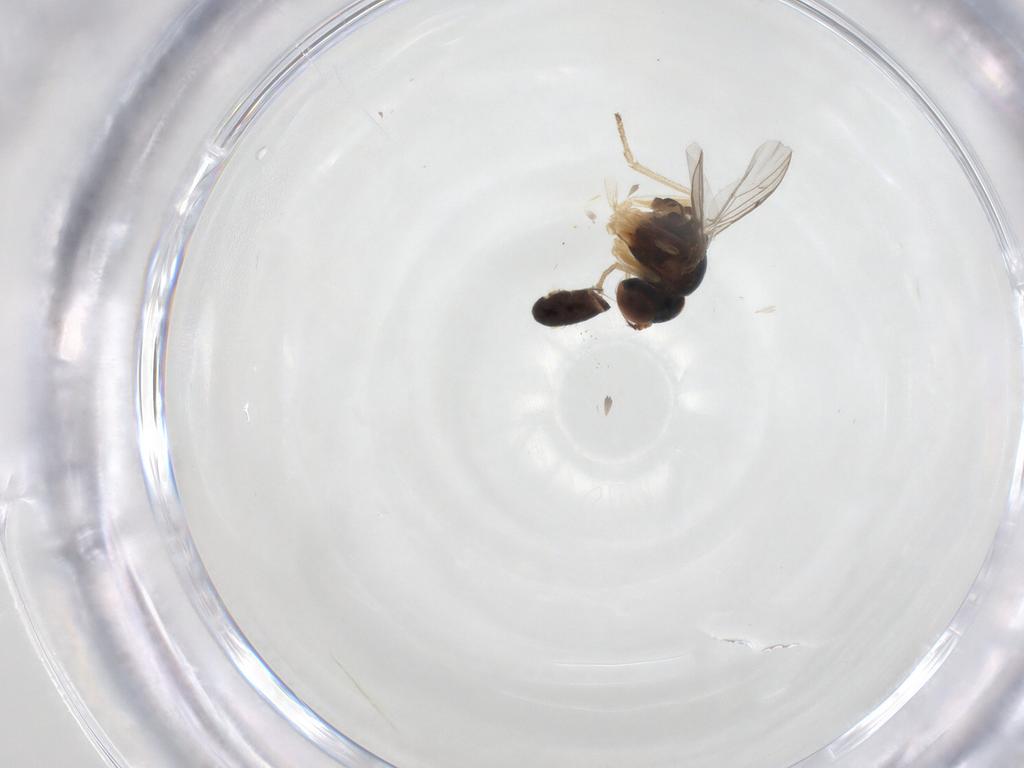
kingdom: Animalia
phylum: Arthropoda
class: Insecta
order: Diptera
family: Dolichopodidae
